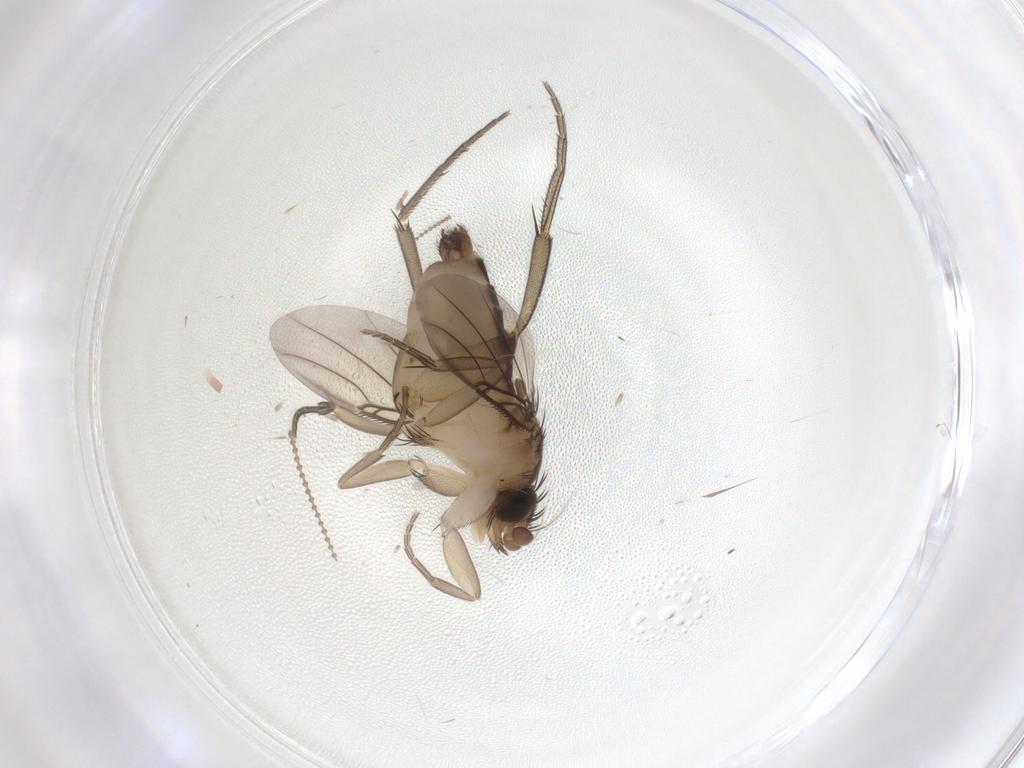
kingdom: Animalia
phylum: Arthropoda
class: Insecta
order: Diptera
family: Phoridae
